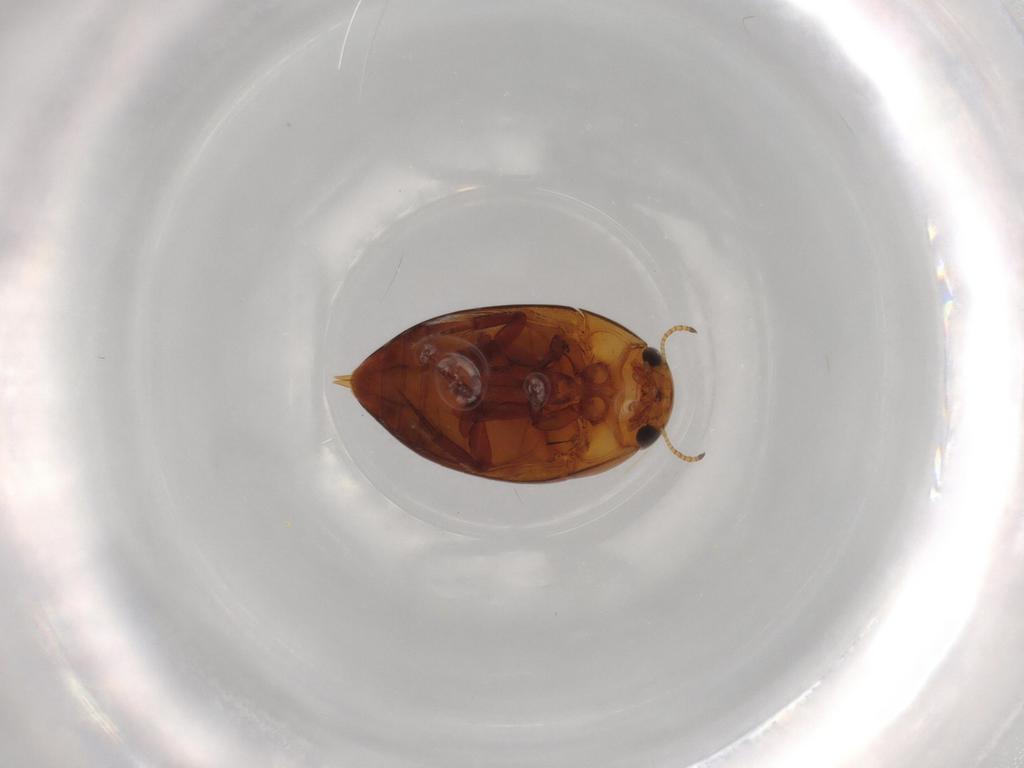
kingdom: Animalia
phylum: Arthropoda
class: Insecta
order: Coleoptera
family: Noteridae
